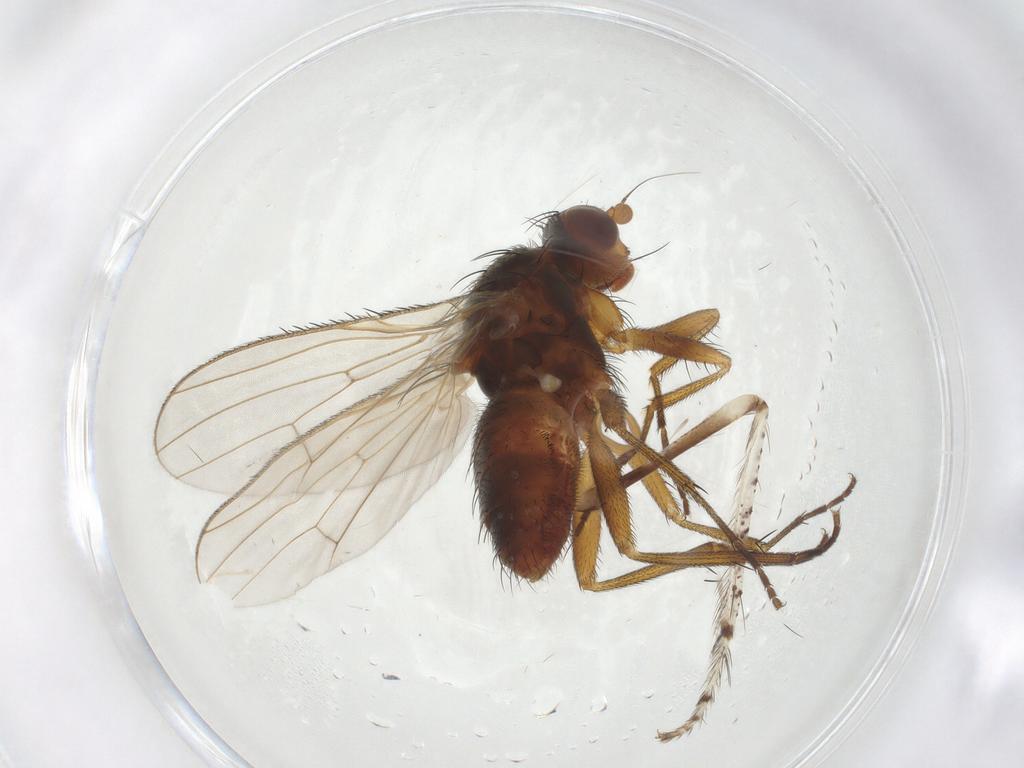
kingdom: Animalia
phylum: Arthropoda
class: Insecta
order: Diptera
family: Heleomyzidae
